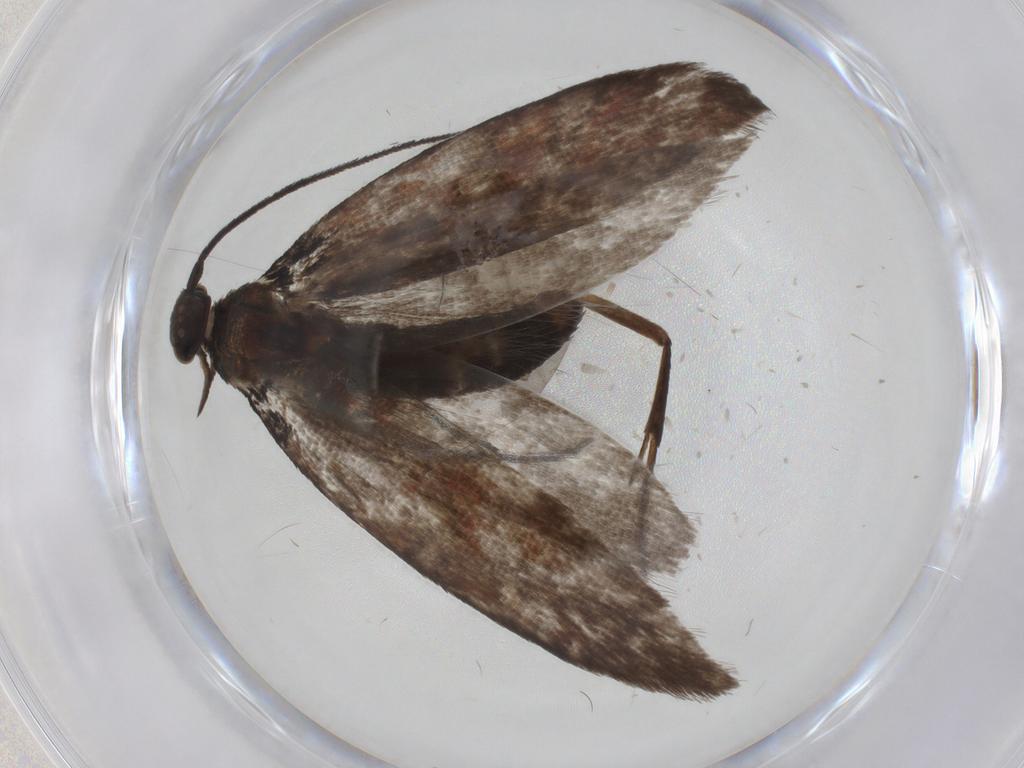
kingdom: Animalia
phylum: Arthropoda
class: Insecta
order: Lepidoptera
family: Argyresthiidae
